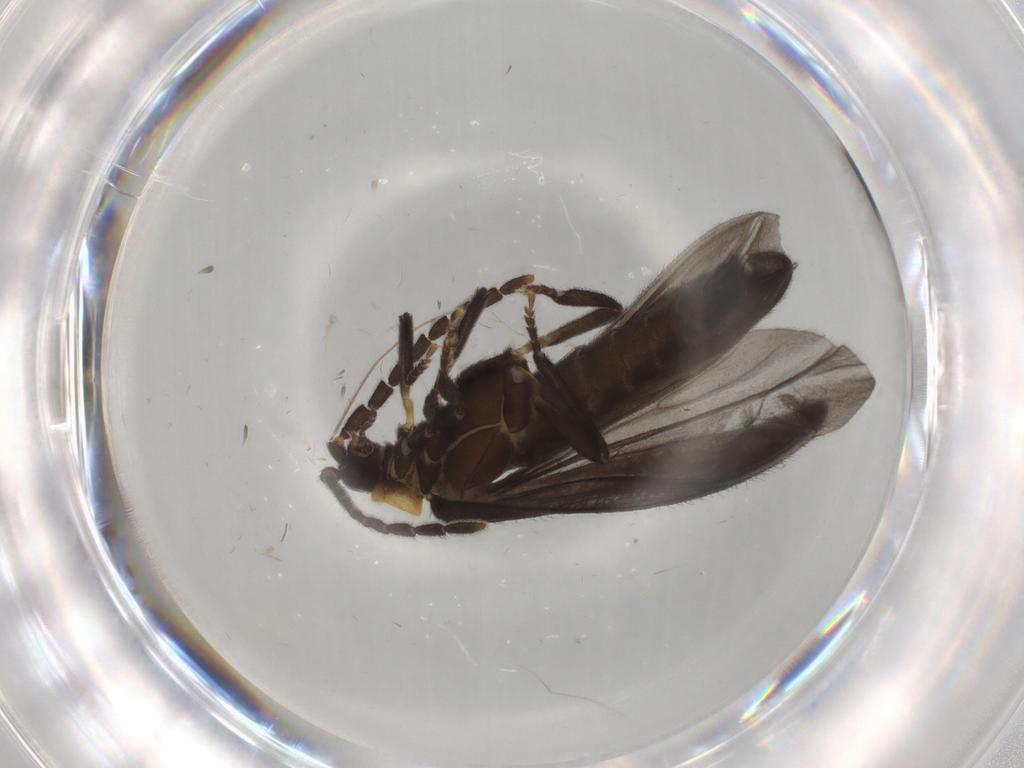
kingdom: Animalia
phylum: Arthropoda
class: Insecta
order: Coleoptera
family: Lycidae
